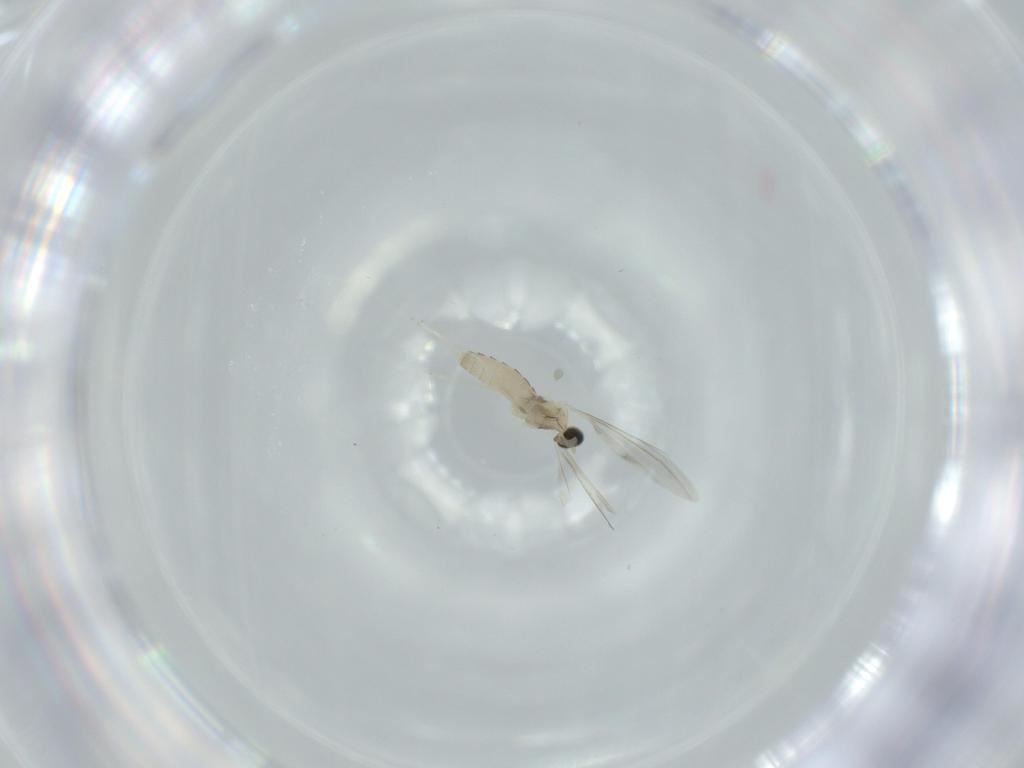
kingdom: Animalia
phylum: Arthropoda
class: Insecta
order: Diptera
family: Cecidomyiidae
